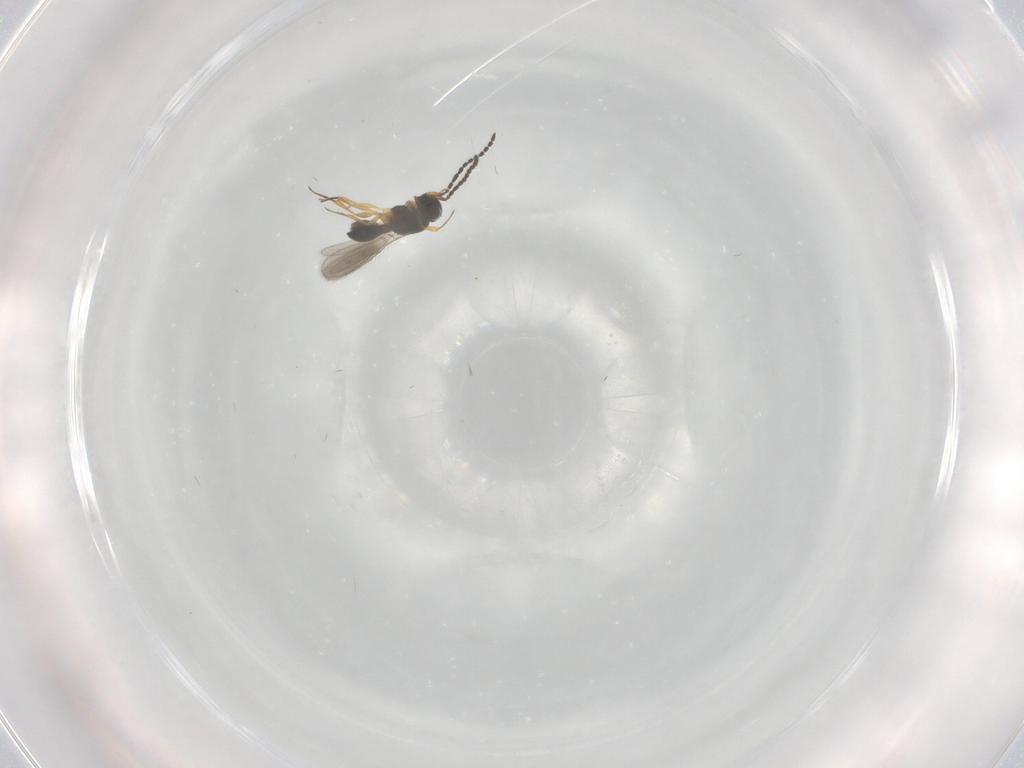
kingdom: Animalia
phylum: Arthropoda
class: Insecta
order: Hymenoptera
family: Scelionidae
